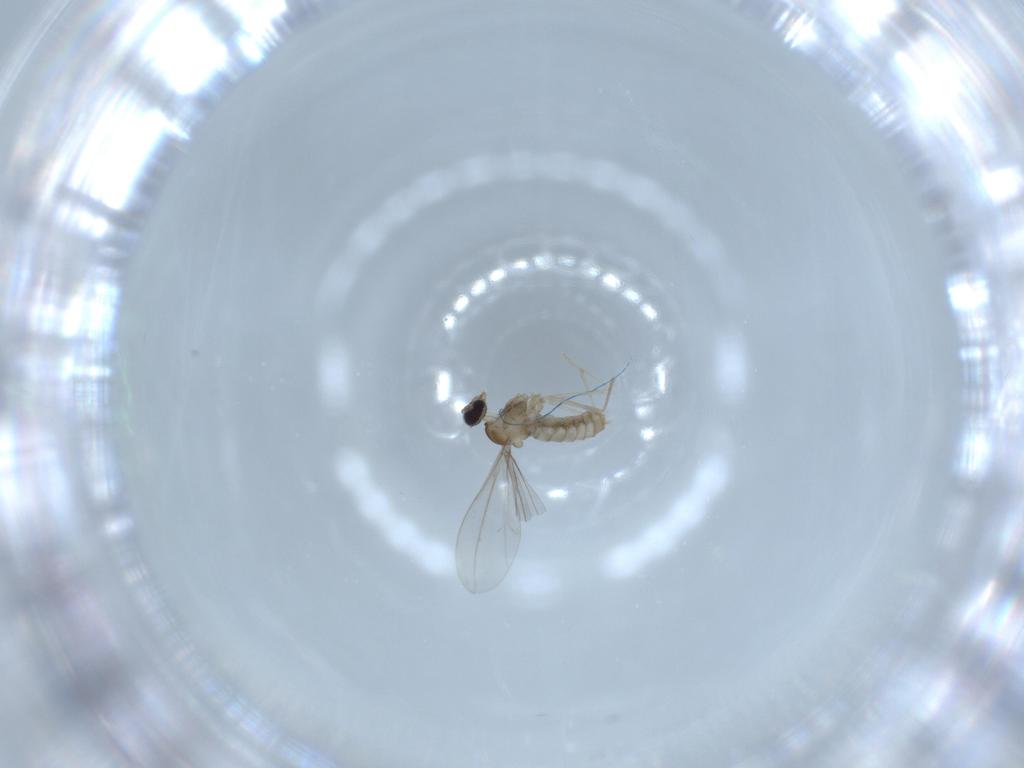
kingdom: Animalia
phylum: Arthropoda
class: Insecta
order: Diptera
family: Cecidomyiidae
